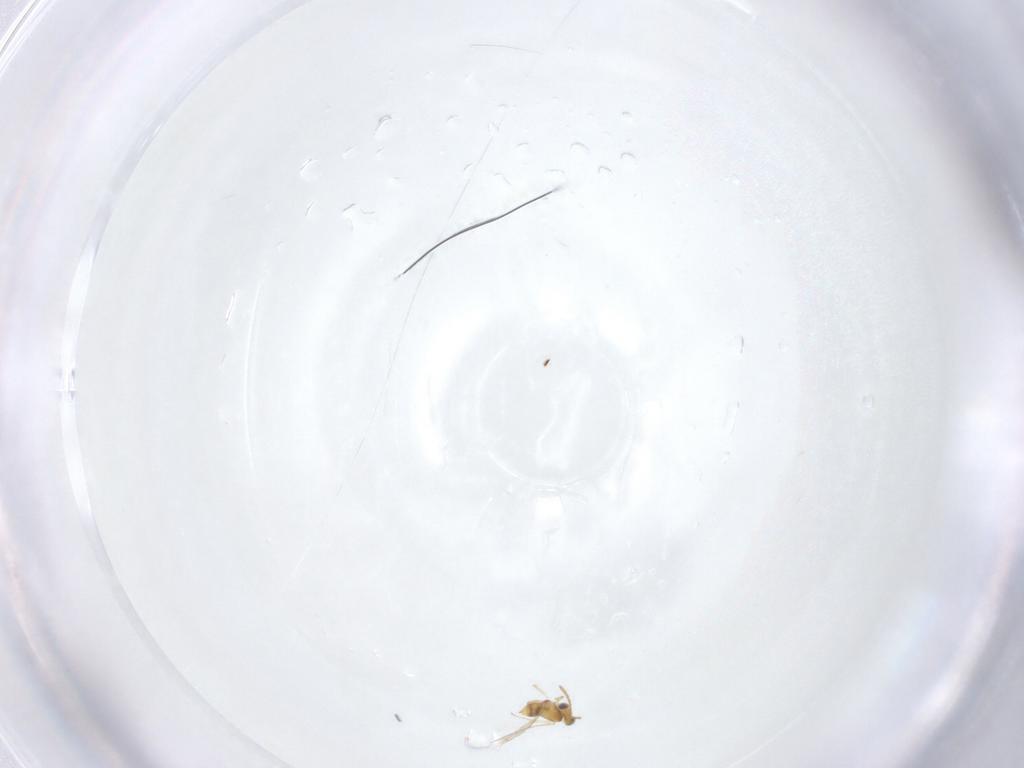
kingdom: Animalia
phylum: Arthropoda
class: Insecta
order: Hymenoptera
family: Aphelinidae
